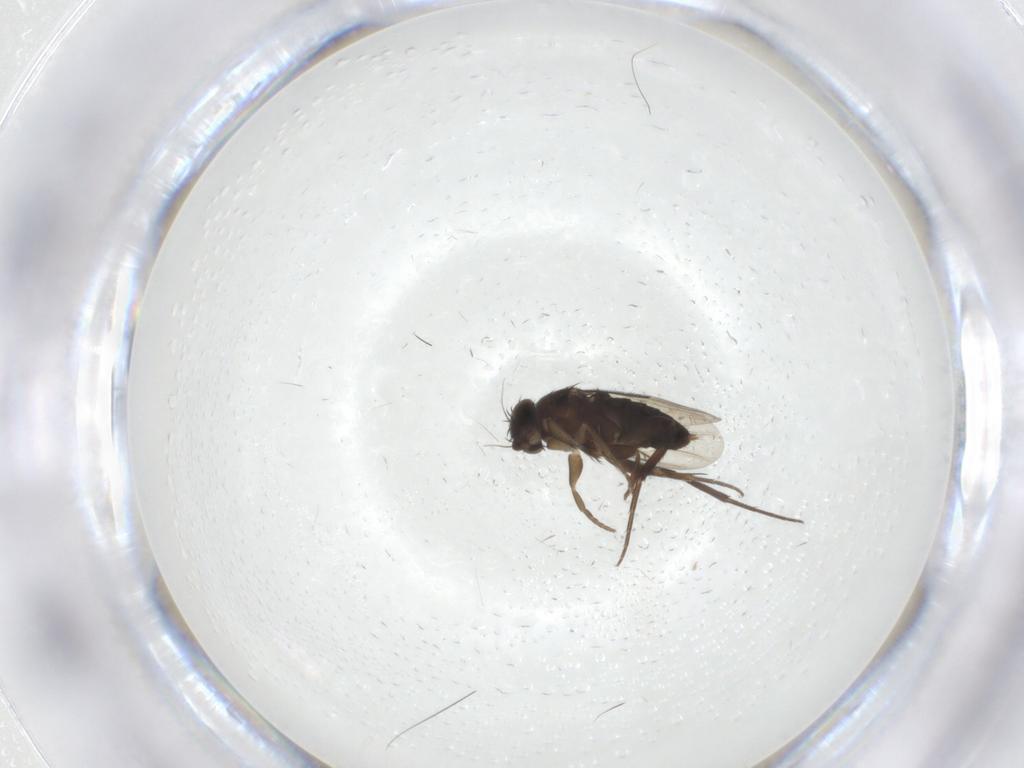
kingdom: Animalia
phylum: Arthropoda
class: Insecta
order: Diptera
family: Phoridae
